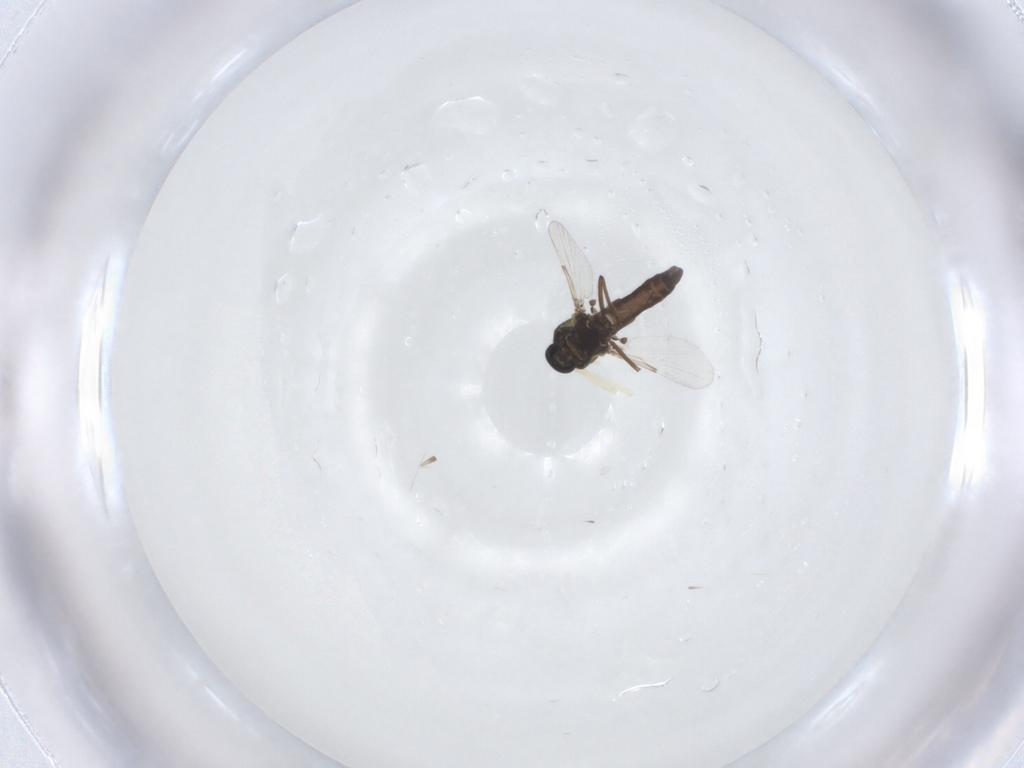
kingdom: Animalia
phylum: Arthropoda
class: Insecta
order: Diptera
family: Ceratopogonidae
